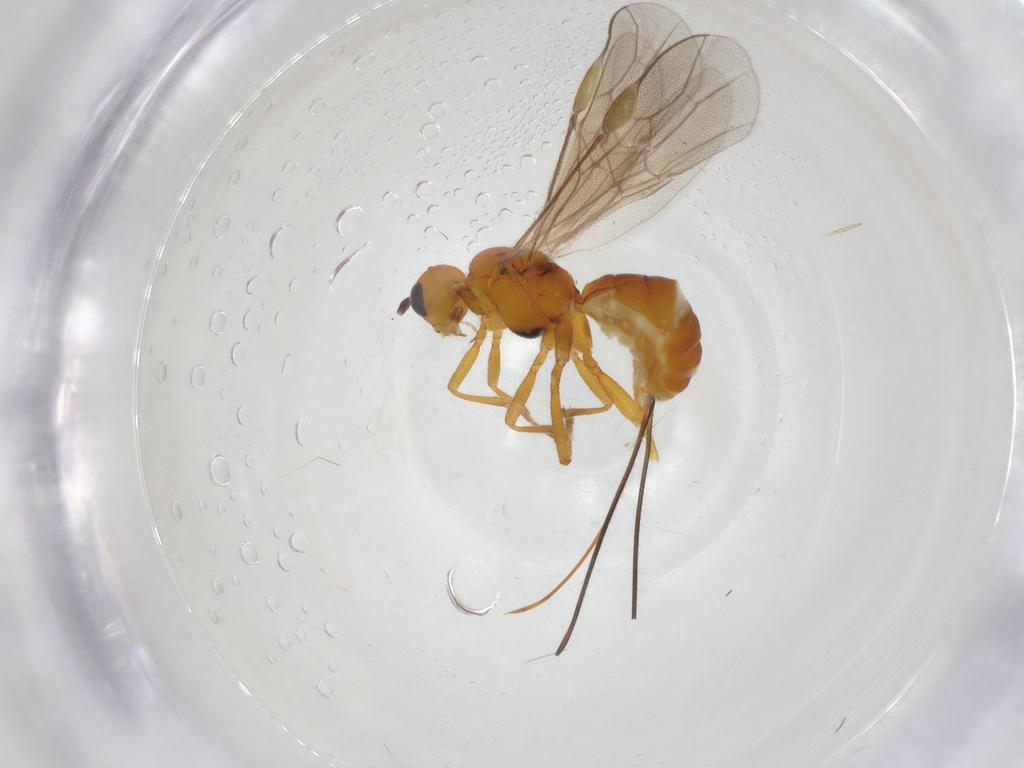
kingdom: Animalia
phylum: Arthropoda
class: Insecta
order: Hymenoptera
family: Braconidae
